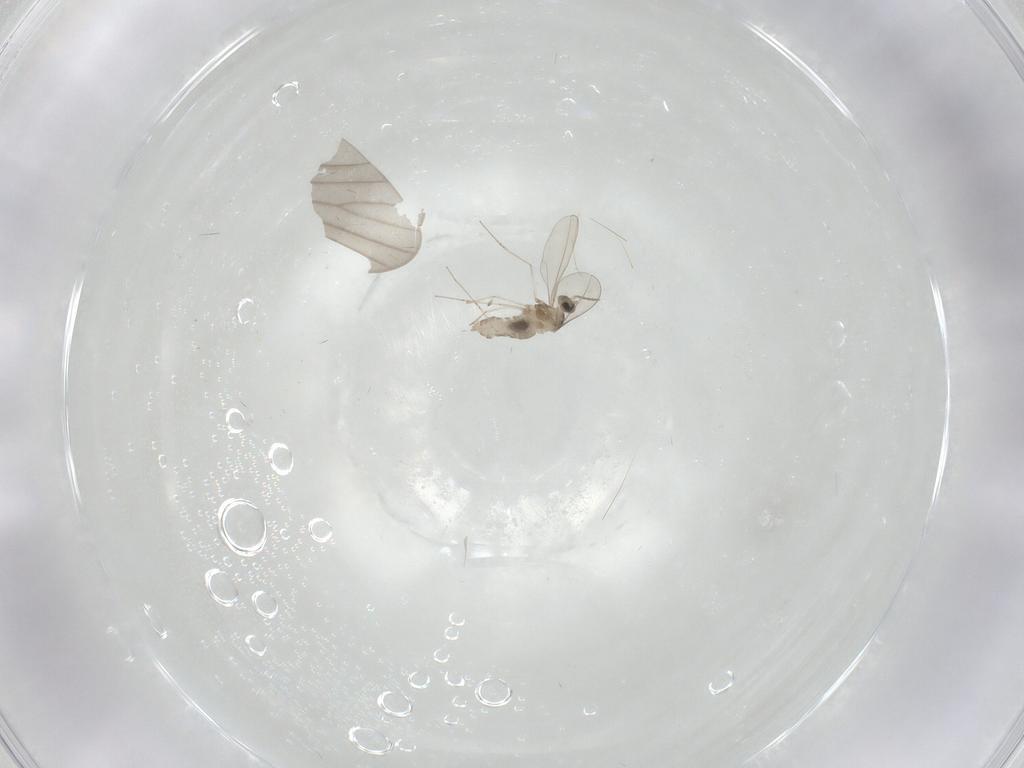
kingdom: Animalia
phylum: Arthropoda
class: Insecta
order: Diptera
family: Cecidomyiidae
